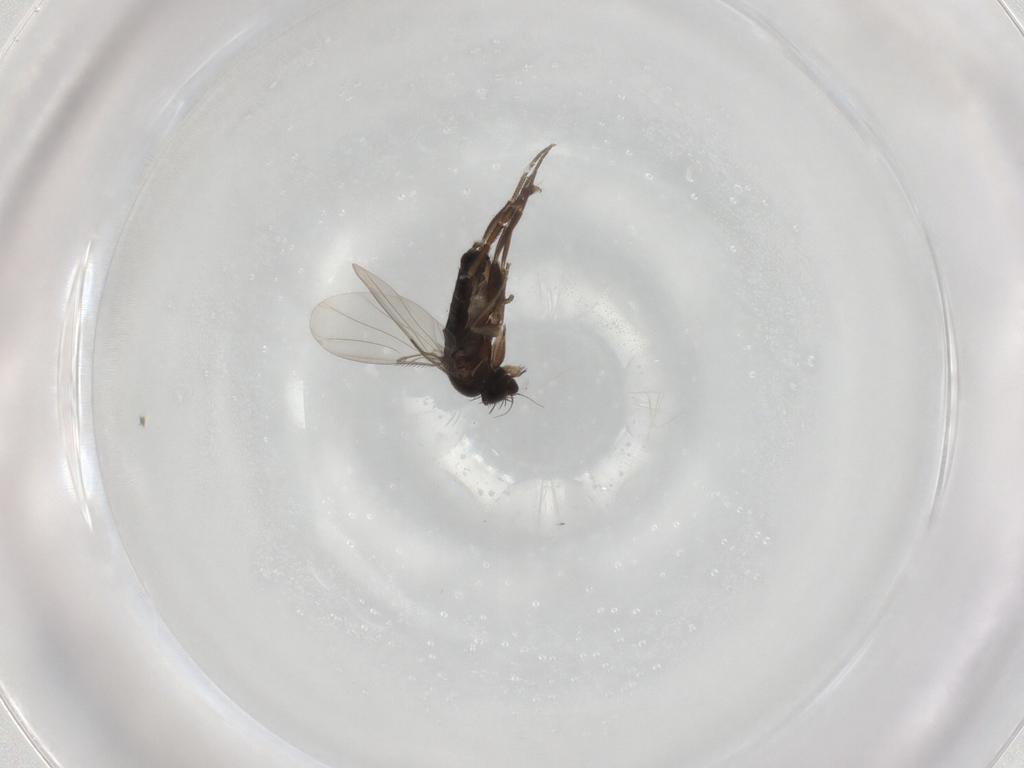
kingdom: Animalia
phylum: Arthropoda
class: Insecta
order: Diptera
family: Phoridae
